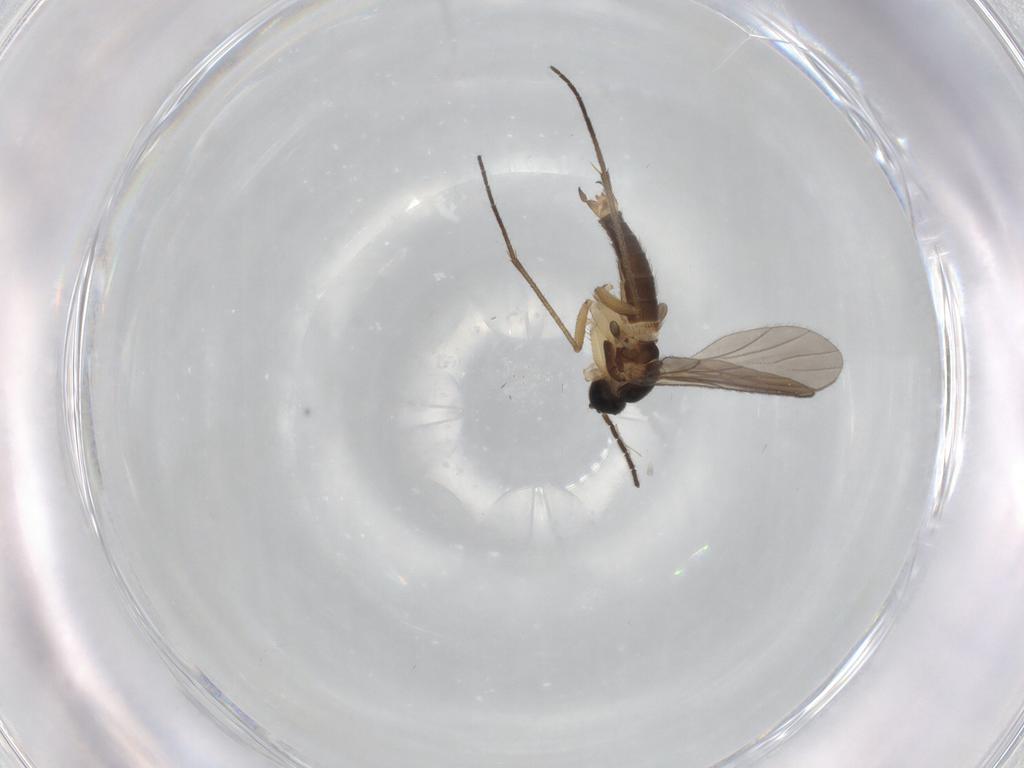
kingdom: Animalia
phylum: Arthropoda
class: Insecta
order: Diptera
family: Sciaridae
